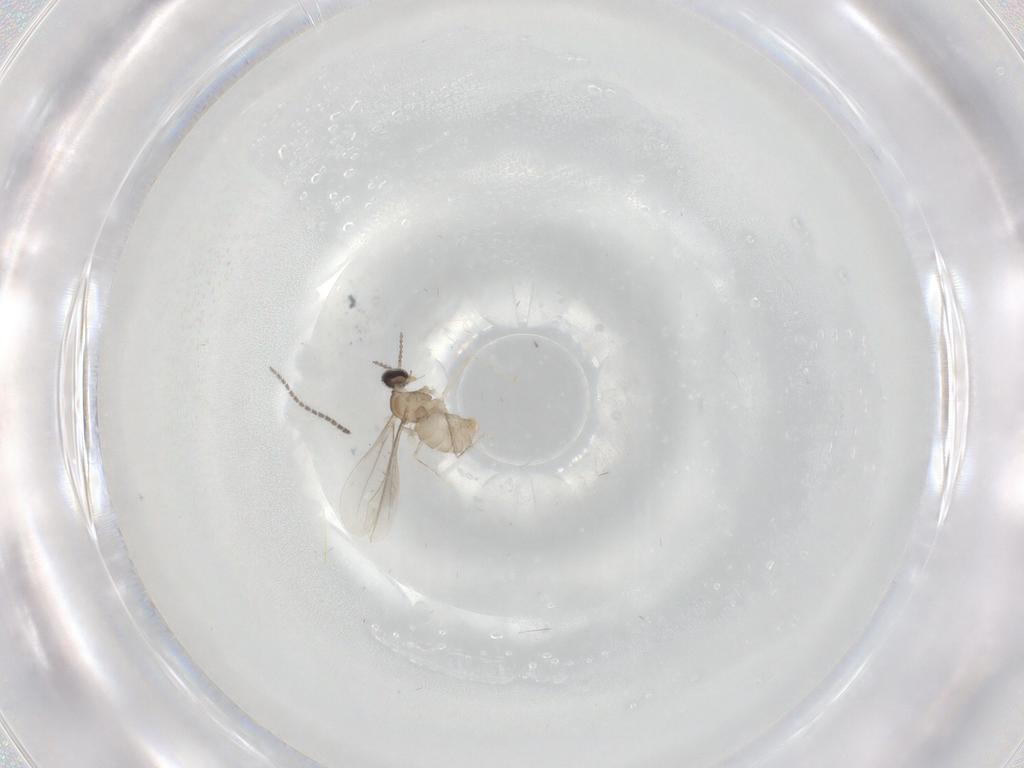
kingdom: Animalia
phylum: Arthropoda
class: Insecta
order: Diptera
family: Cecidomyiidae
